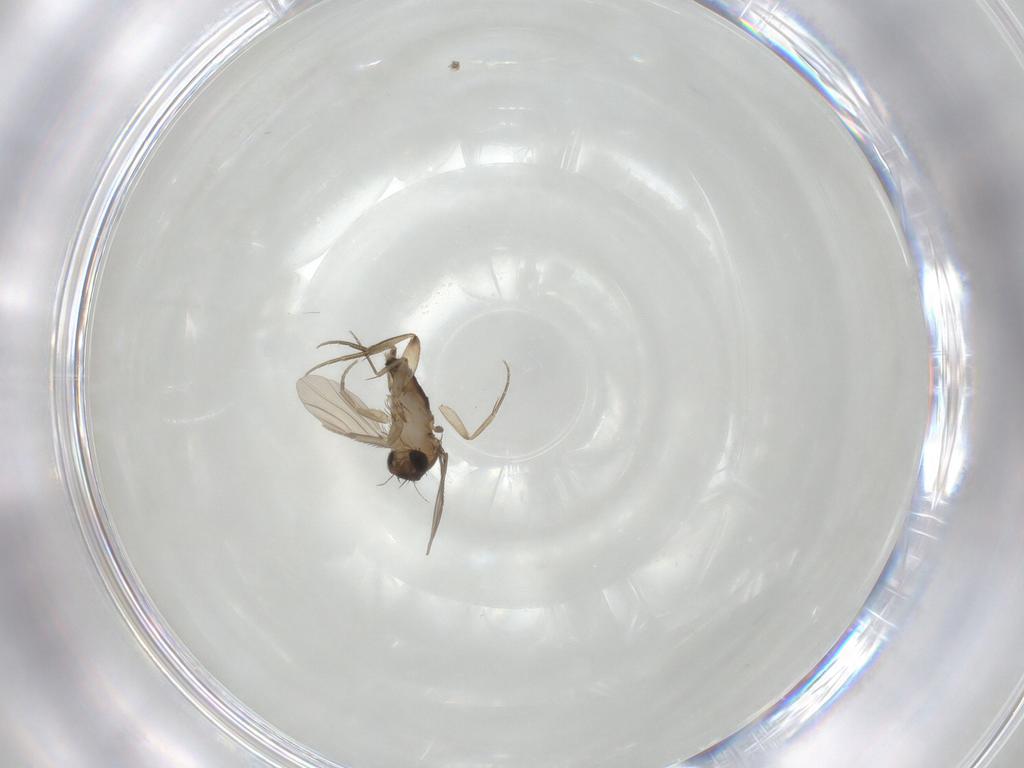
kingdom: Animalia
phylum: Arthropoda
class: Insecta
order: Diptera
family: Phoridae
